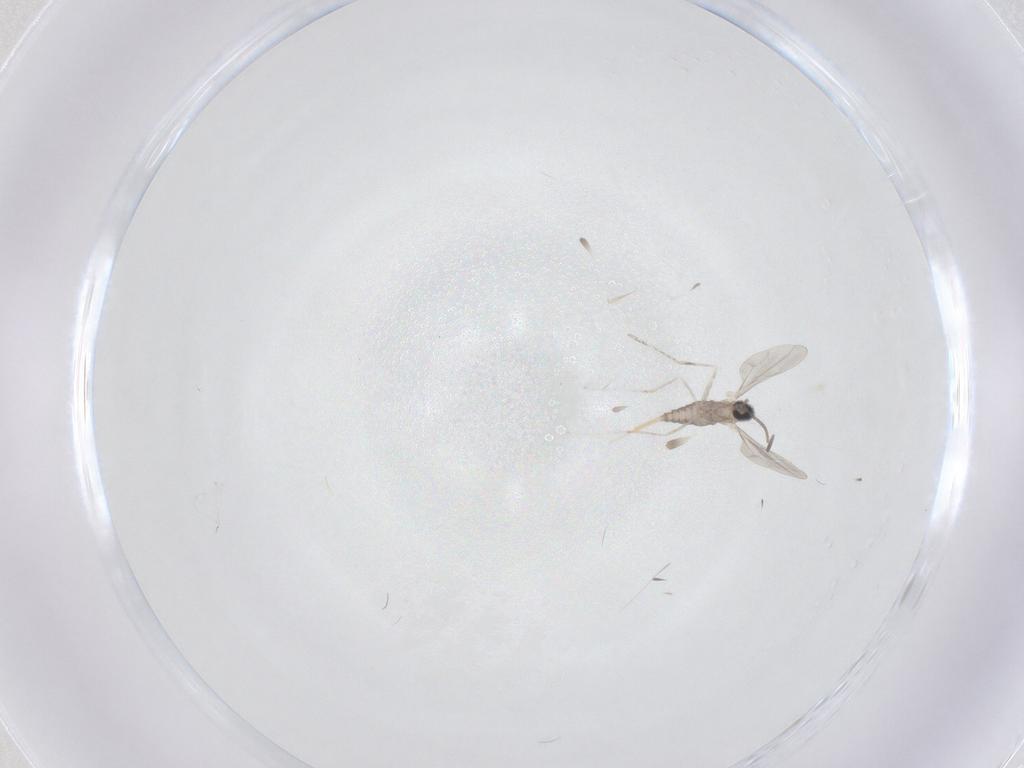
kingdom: Animalia
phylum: Arthropoda
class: Insecta
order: Diptera
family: Cecidomyiidae
